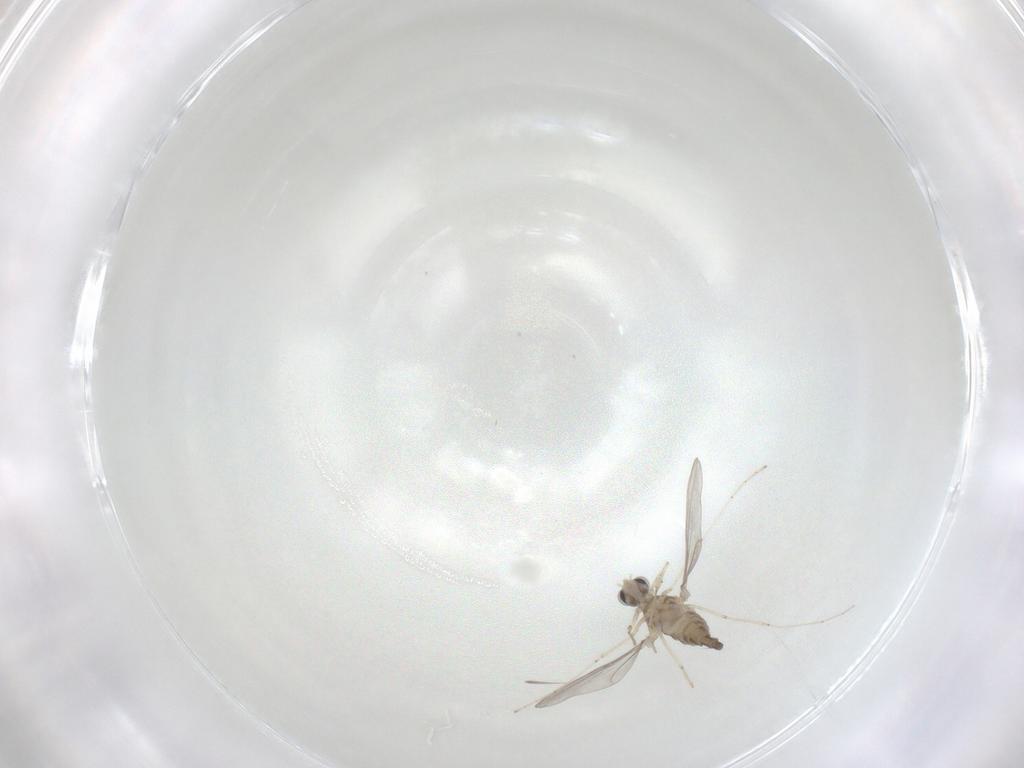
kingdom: Animalia
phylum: Arthropoda
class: Insecta
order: Diptera
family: Cecidomyiidae
